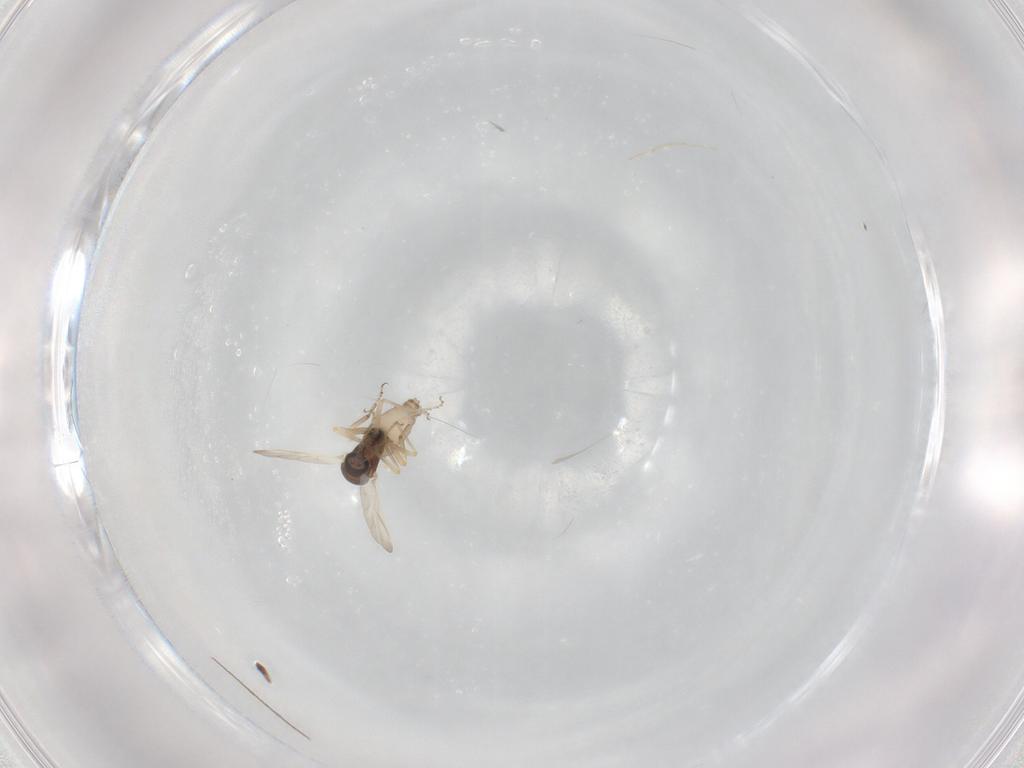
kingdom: Animalia
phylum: Arthropoda
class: Insecta
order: Diptera
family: Ceratopogonidae
